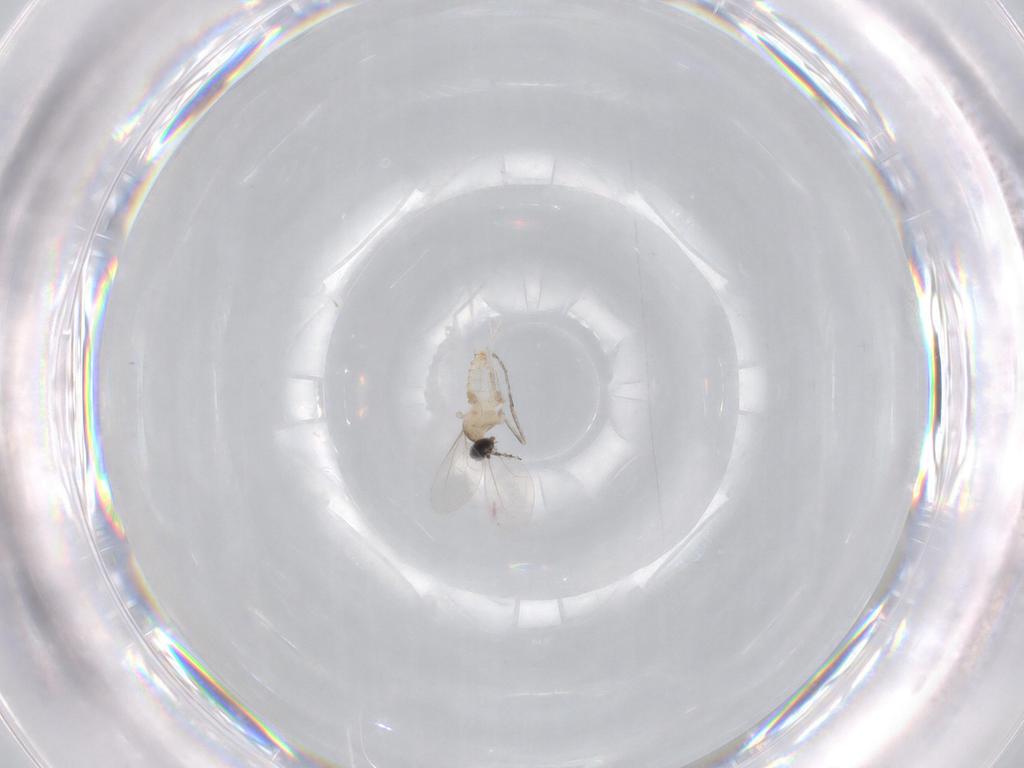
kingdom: Animalia
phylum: Arthropoda
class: Insecta
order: Diptera
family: Cecidomyiidae
